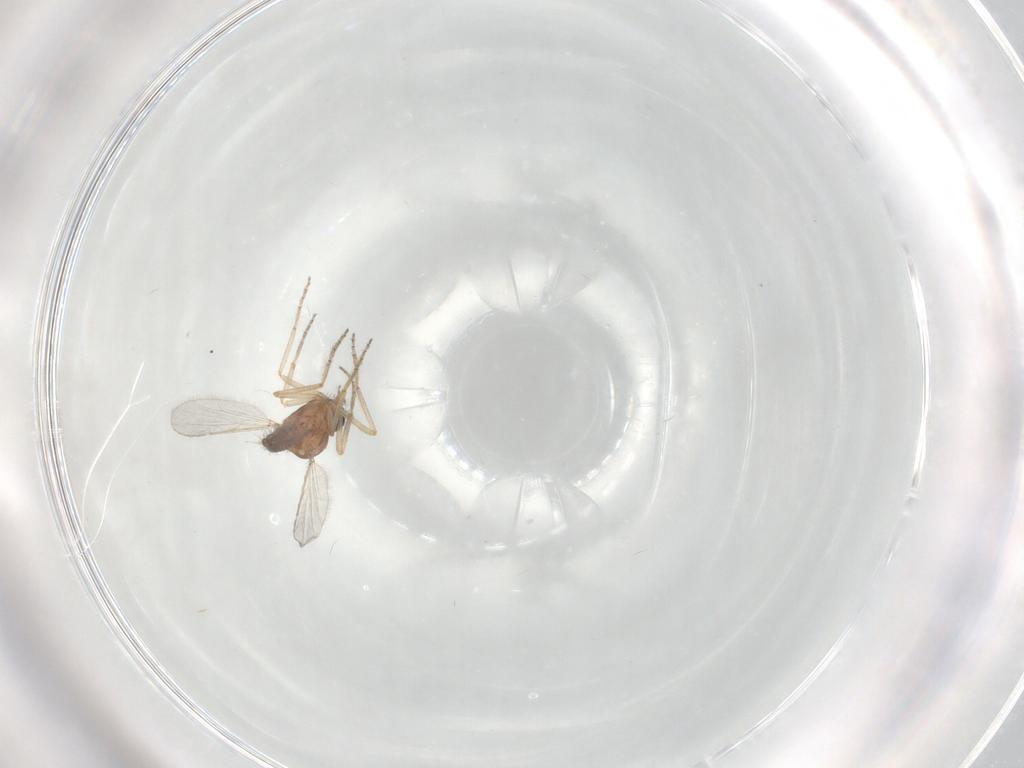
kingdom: Animalia
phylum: Arthropoda
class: Insecta
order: Diptera
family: Ceratopogonidae
